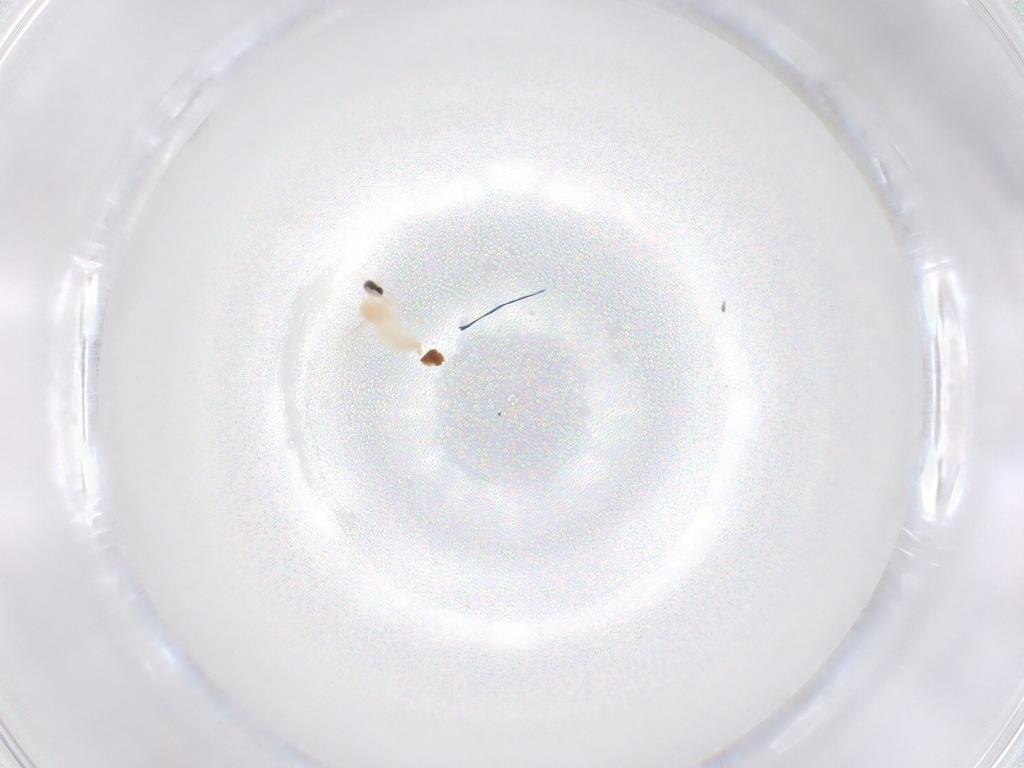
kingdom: Animalia
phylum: Arthropoda
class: Insecta
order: Diptera
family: Cecidomyiidae
